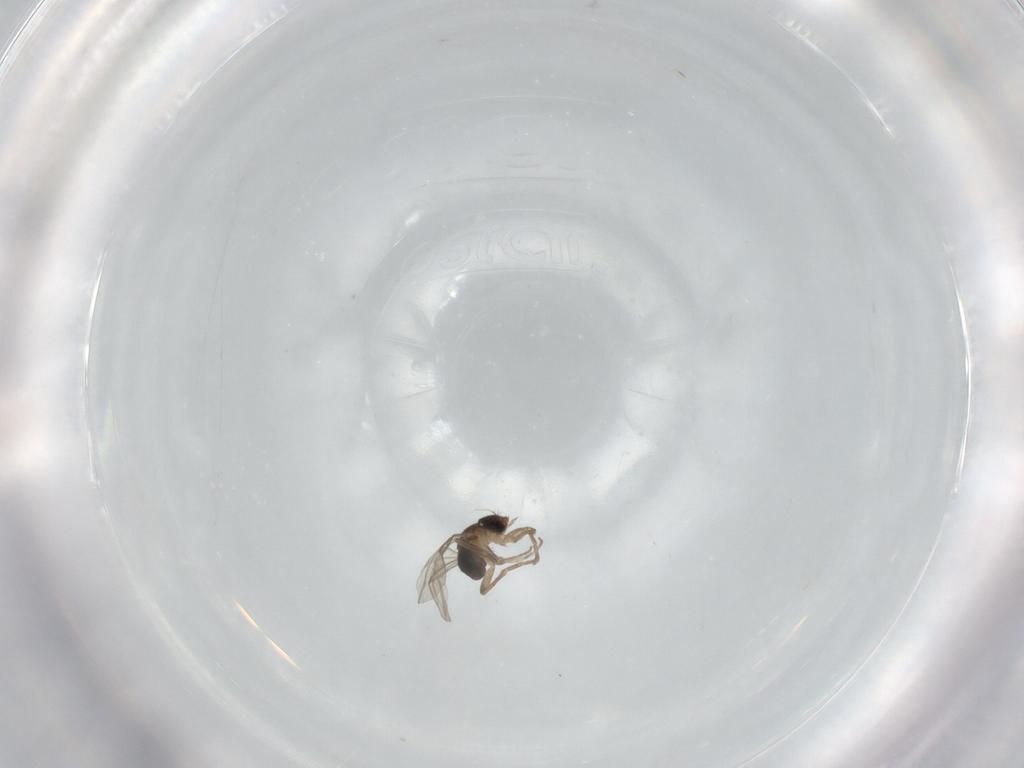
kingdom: Animalia
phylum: Arthropoda
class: Insecta
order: Diptera
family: Phoridae
